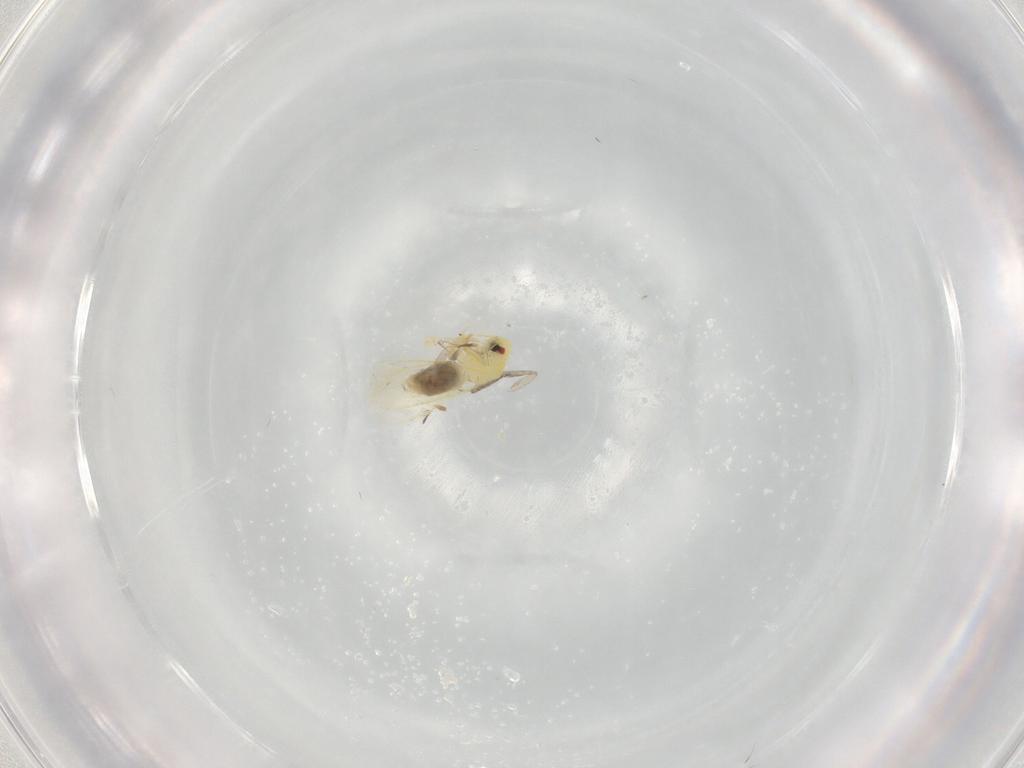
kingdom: Animalia
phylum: Arthropoda
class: Insecta
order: Hemiptera
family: Aleyrodidae
